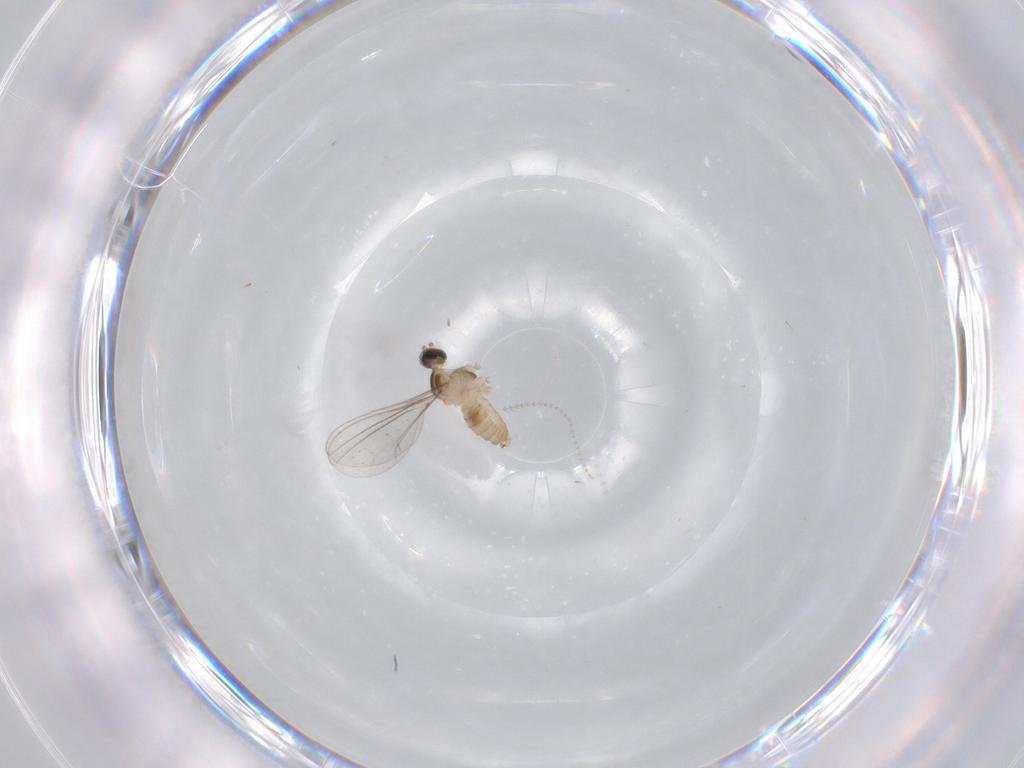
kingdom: Animalia
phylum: Arthropoda
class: Insecta
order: Diptera
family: Cecidomyiidae
